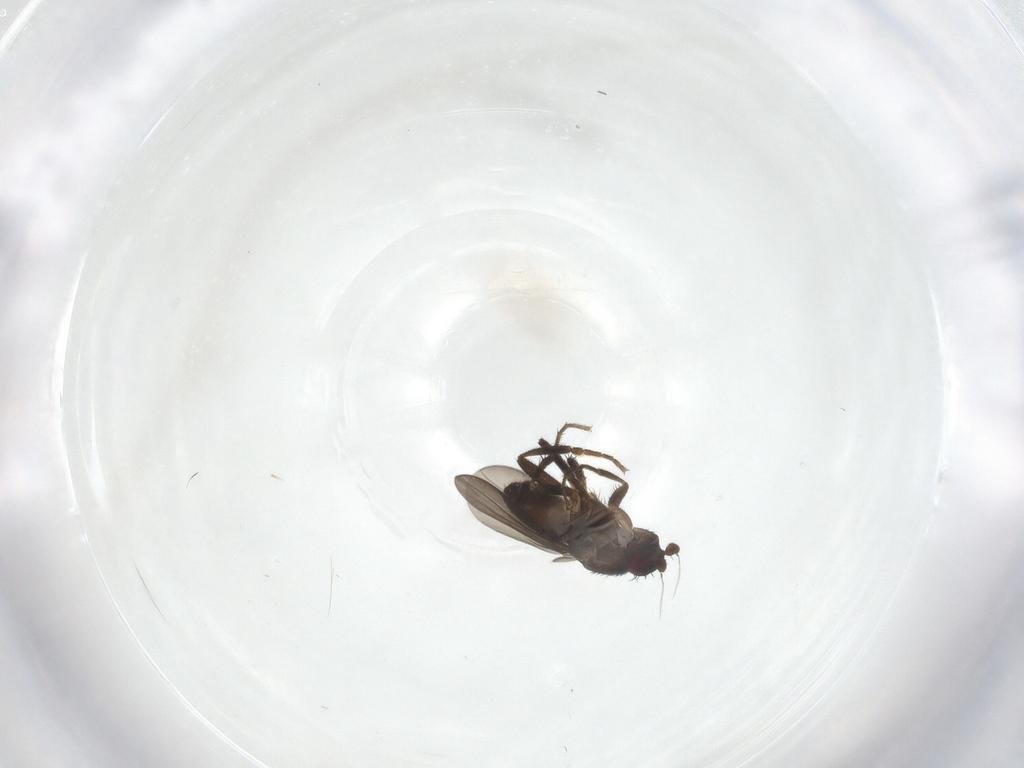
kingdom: Animalia
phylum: Arthropoda
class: Insecta
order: Diptera
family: Sphaeroceridae
